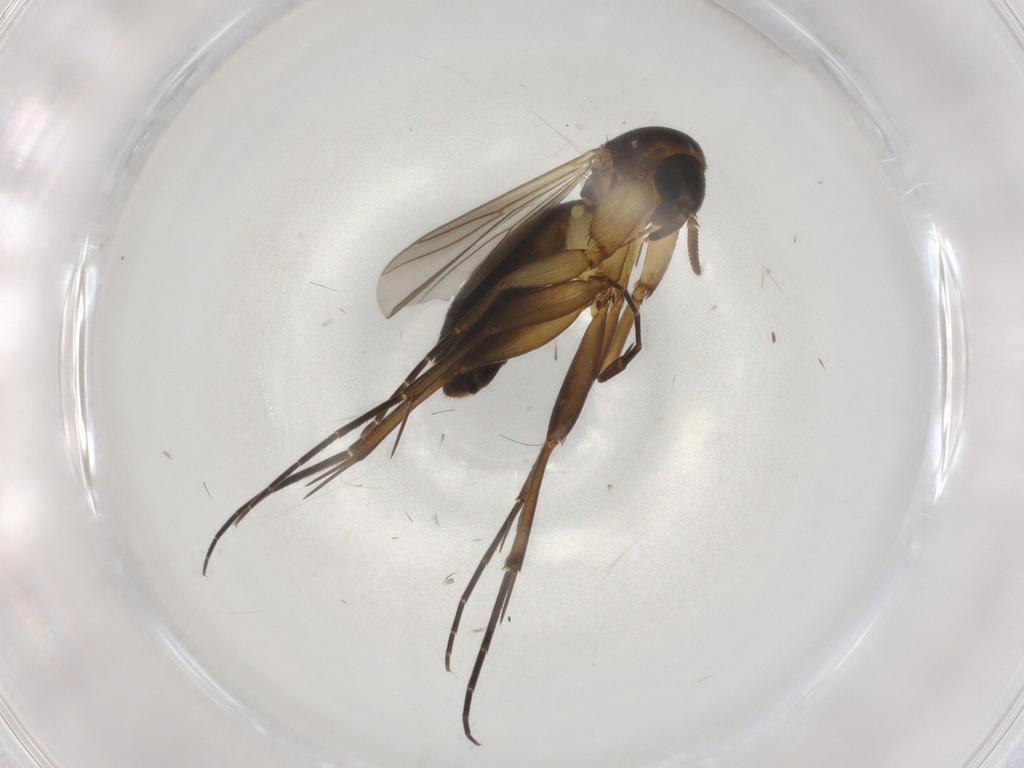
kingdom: Animalia
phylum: Arthropoda
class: Insecta
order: Diptera
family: Mycetophilidae
